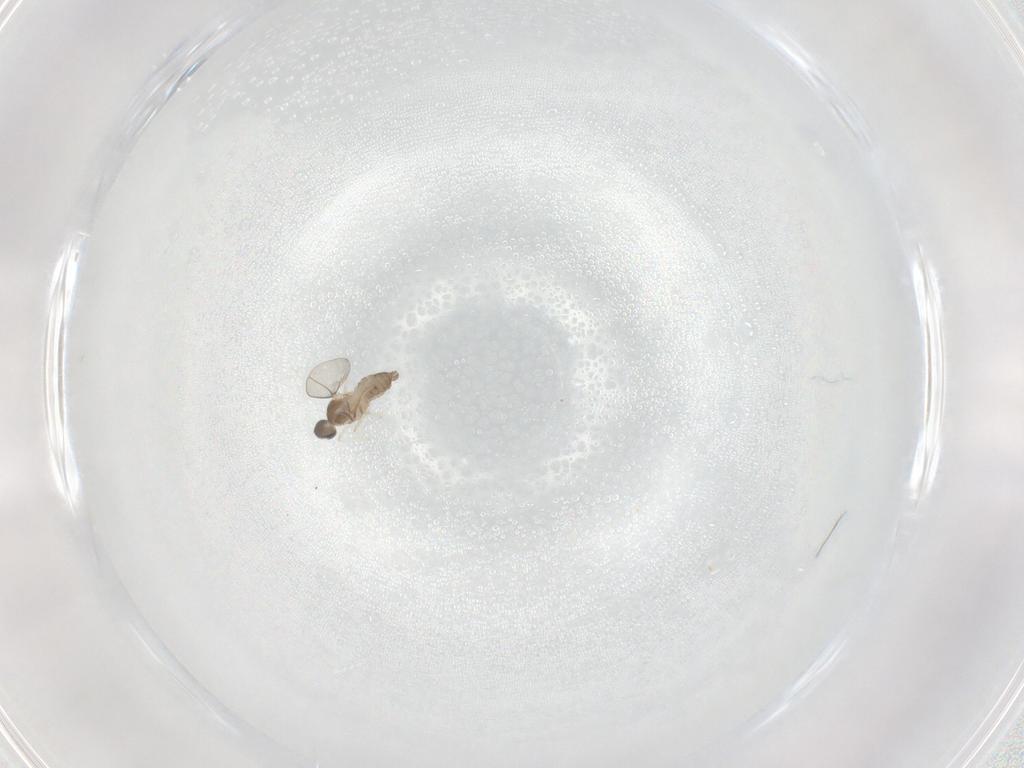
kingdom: Animalia
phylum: Arthropoda
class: Insecta
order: Diptera
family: Cecidomyiidae
